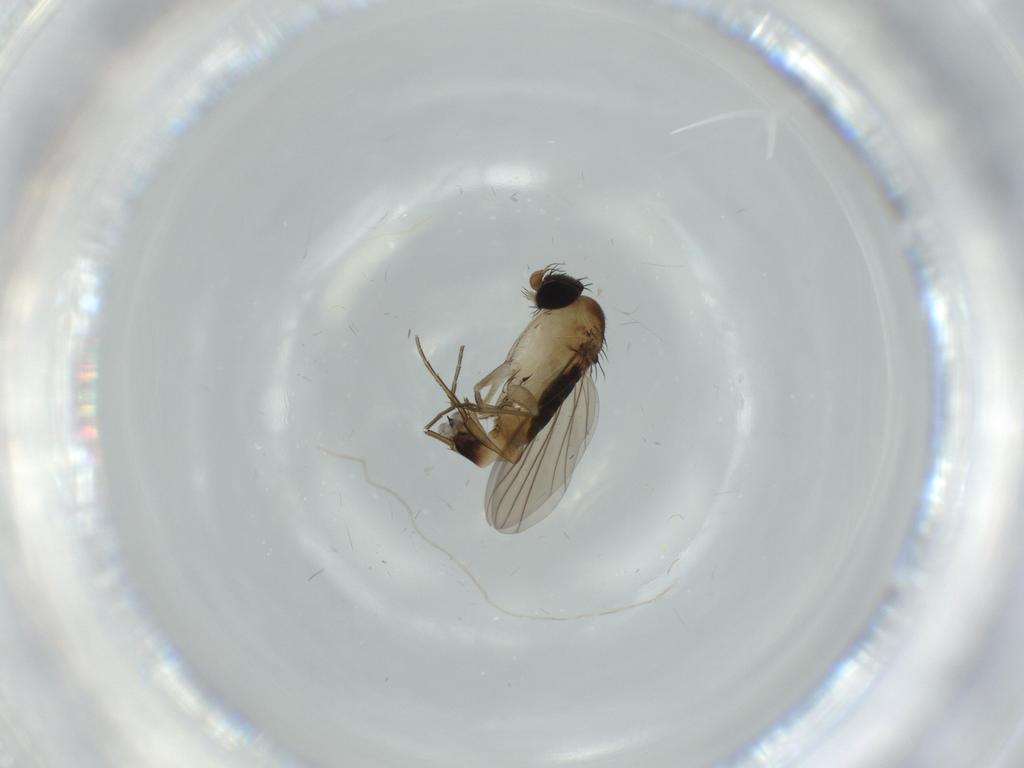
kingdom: Animalia
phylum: Arthropoda
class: Insecta
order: Diptera
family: Phoridae
